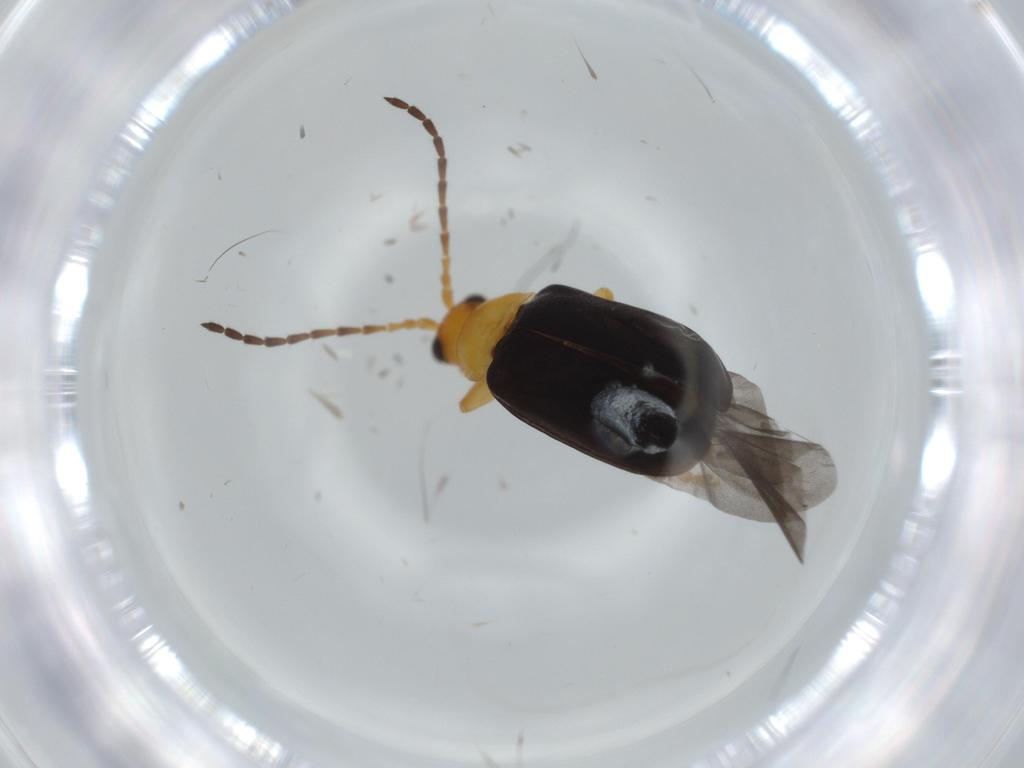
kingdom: Animalia
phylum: Arthropoda
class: Insecta
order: Coleoptera
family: Chrysomelidae
